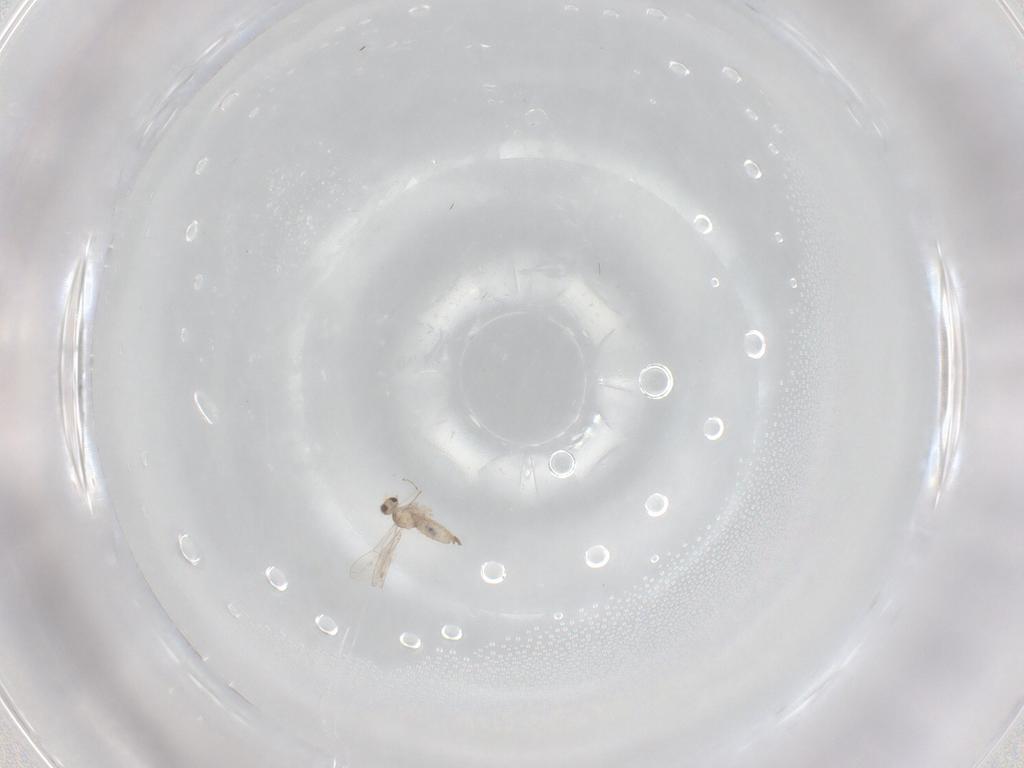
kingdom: Animalia
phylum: Arthropoda
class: Insecta
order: Diptera
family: Cecidomyiidae
